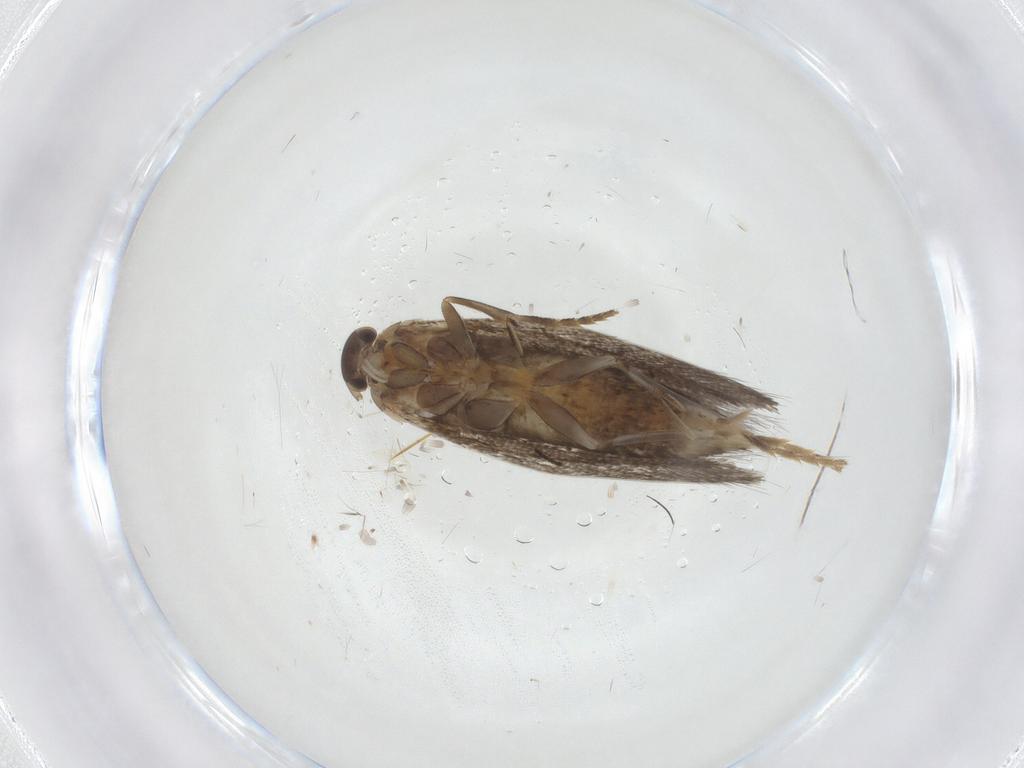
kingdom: Animalia
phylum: Arthropoda
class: Insecta
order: Lepidoptera
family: Elachistidae
